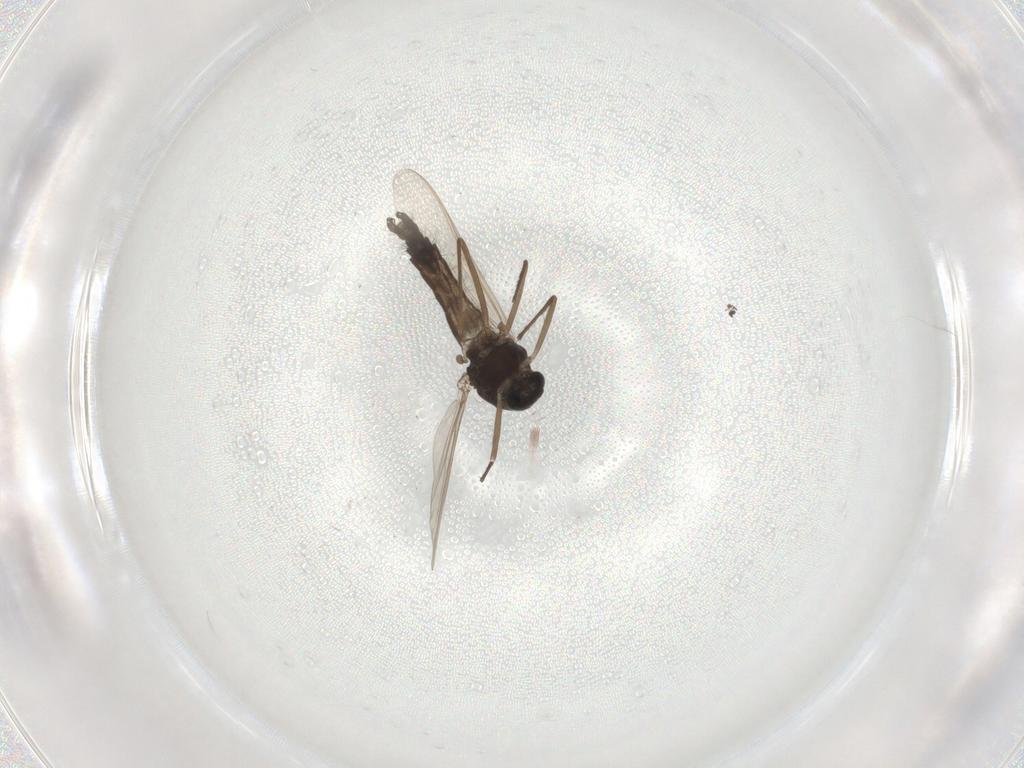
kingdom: Animalia
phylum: Arthropoda
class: Insecta
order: Diptera
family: Chironomidae
